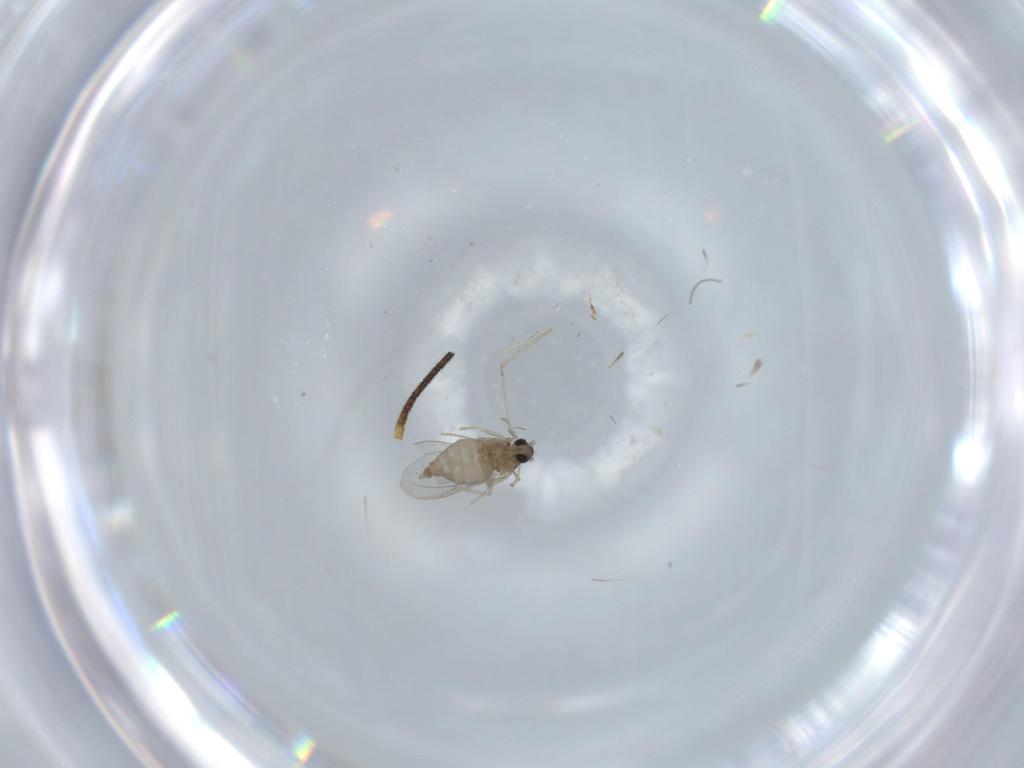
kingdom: Animalia
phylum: Arthropoda
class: Insecta
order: Diptera
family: Cecidomyiidae
